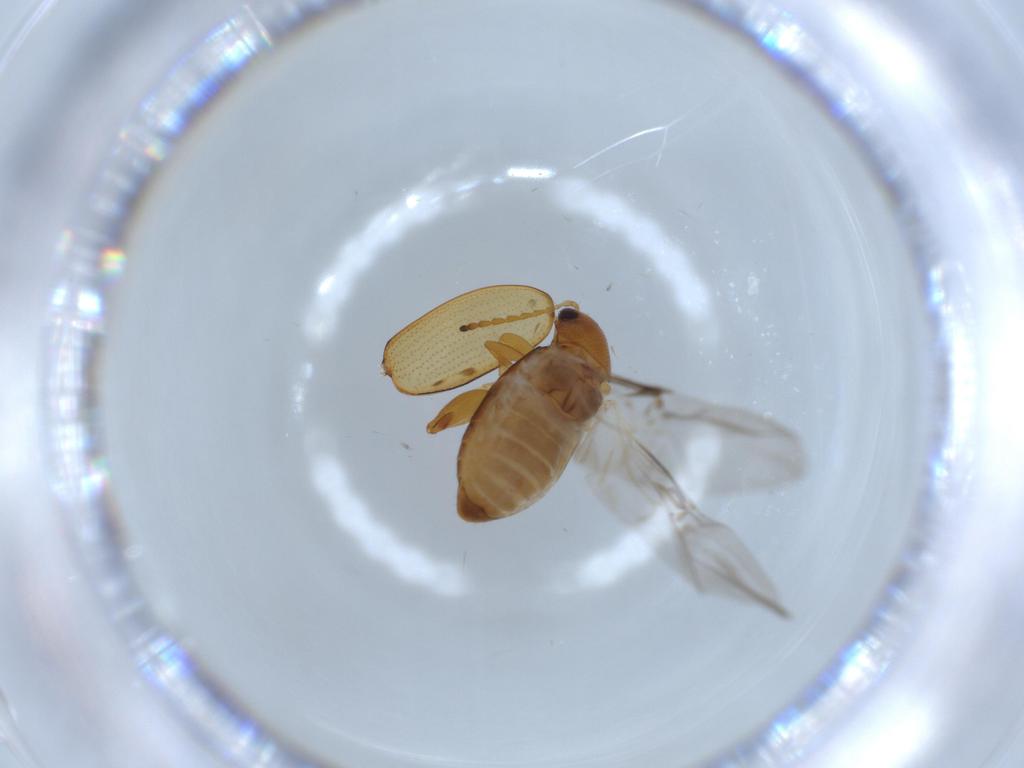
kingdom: Animalia
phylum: Arthropoda
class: Insecta
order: Coleoptera
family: Chrysomelidae
